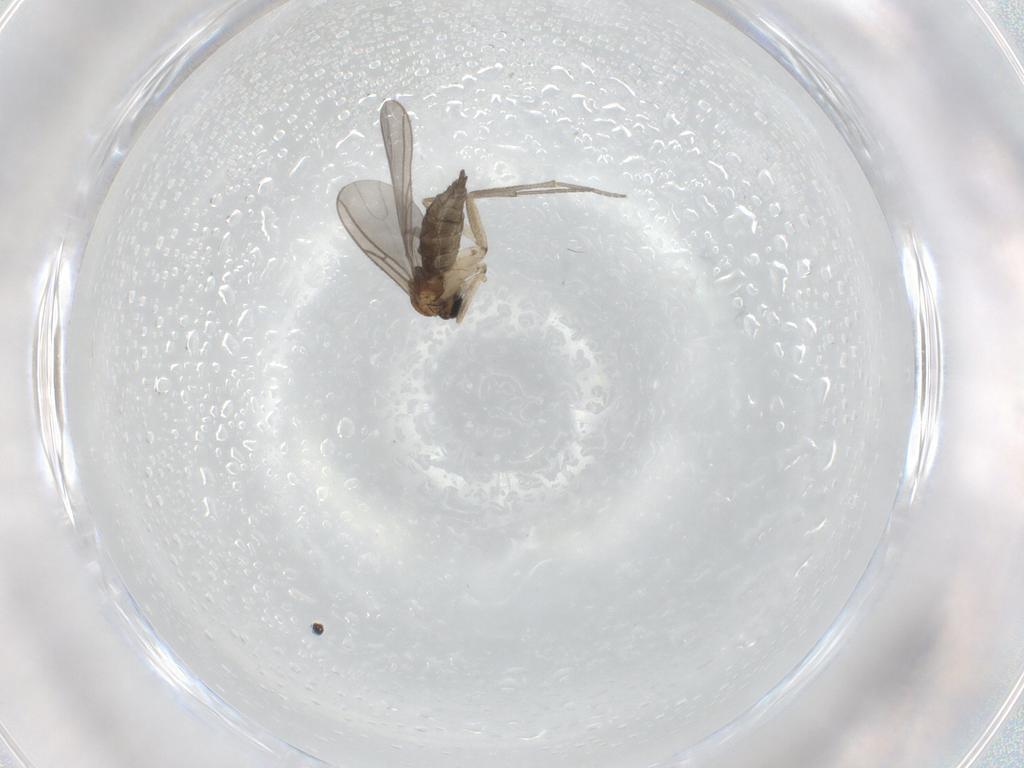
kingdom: Animalia
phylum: Arthropoda
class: Insecta
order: Diptera
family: Sciaridae
